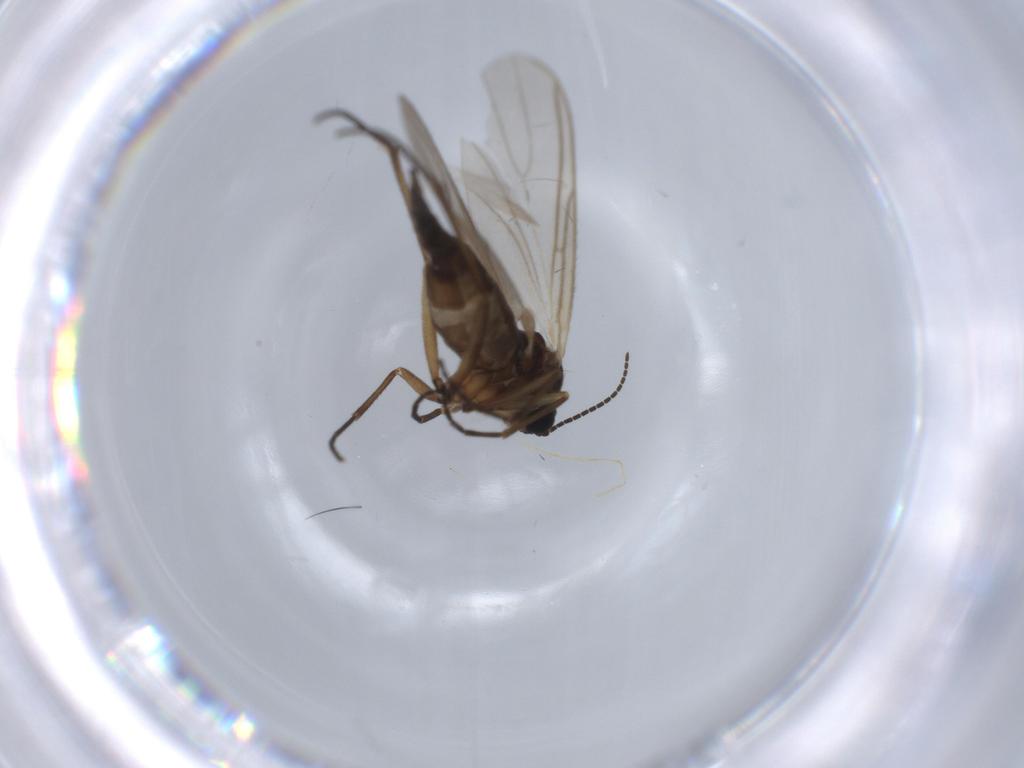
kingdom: Animalia
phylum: Arthropoda
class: Insecta
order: Diptera
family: Sciaridae
